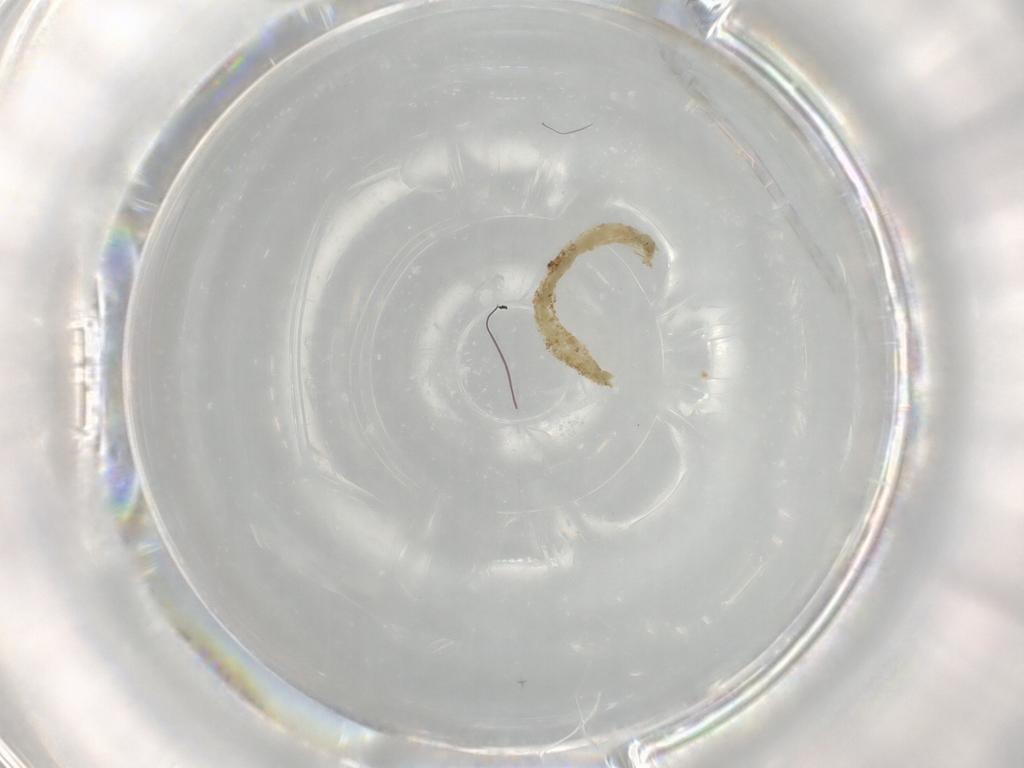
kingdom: Animalia
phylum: Arthropoda
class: Insecta
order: Diptera
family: Chironomidae
